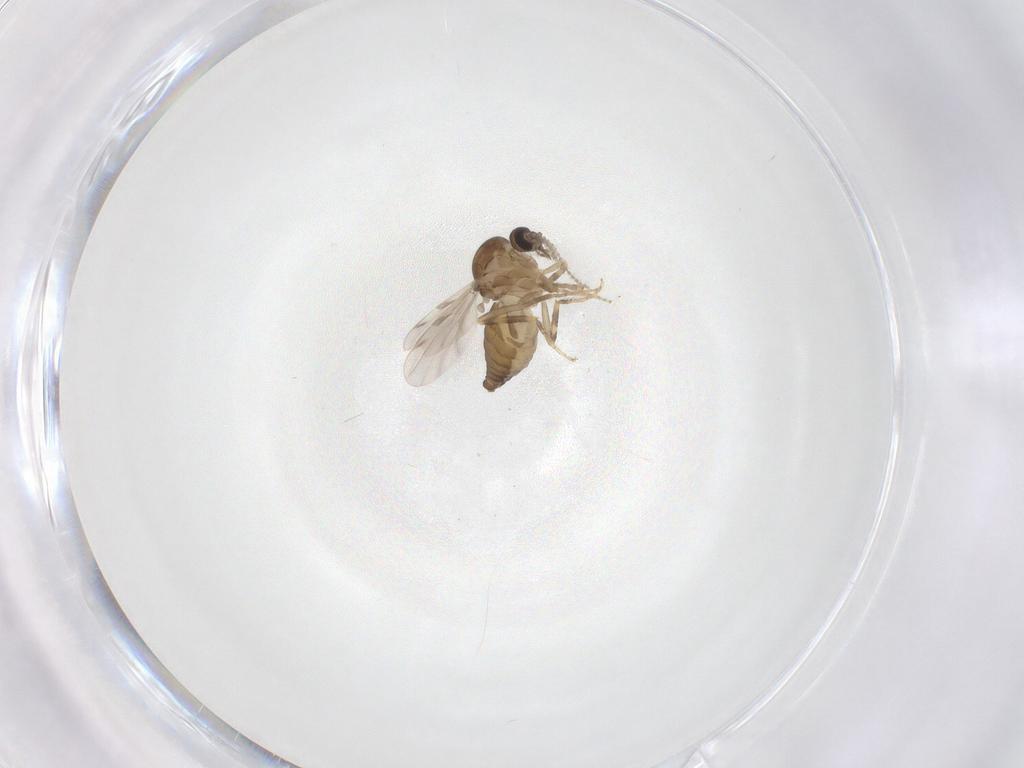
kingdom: Animalia
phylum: Arthropoda
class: Insecta
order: Diptera
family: Ceratopogonidae
